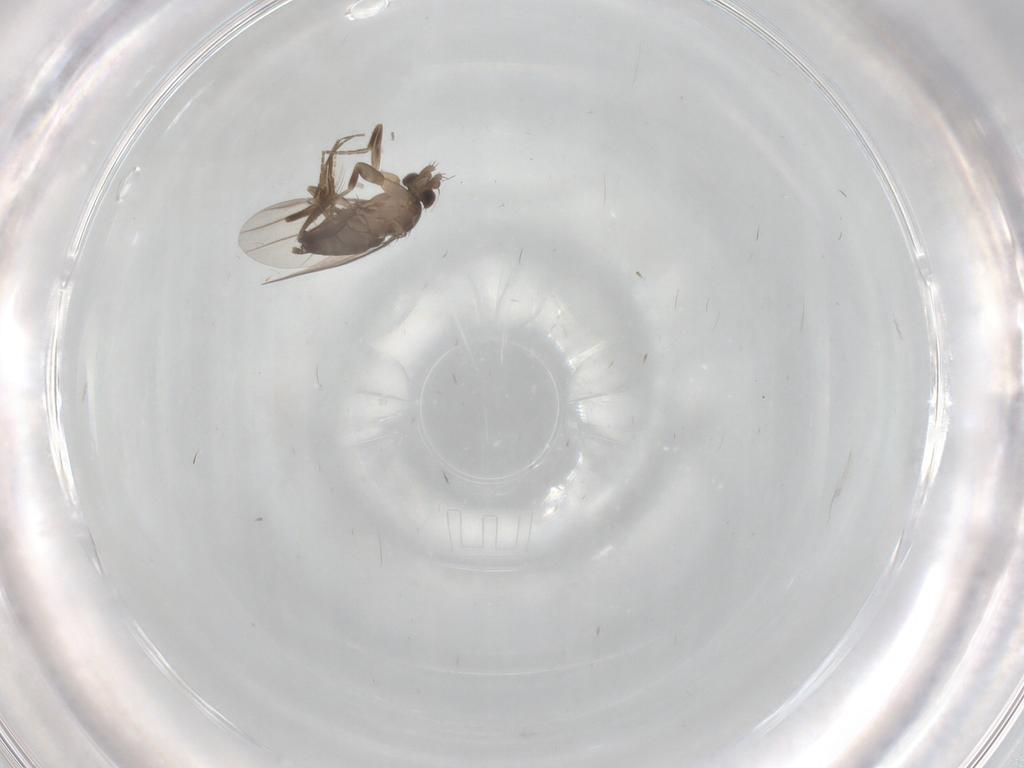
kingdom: Animalia
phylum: Arthropoda
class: Insecta
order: Diptera
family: Phoridae
